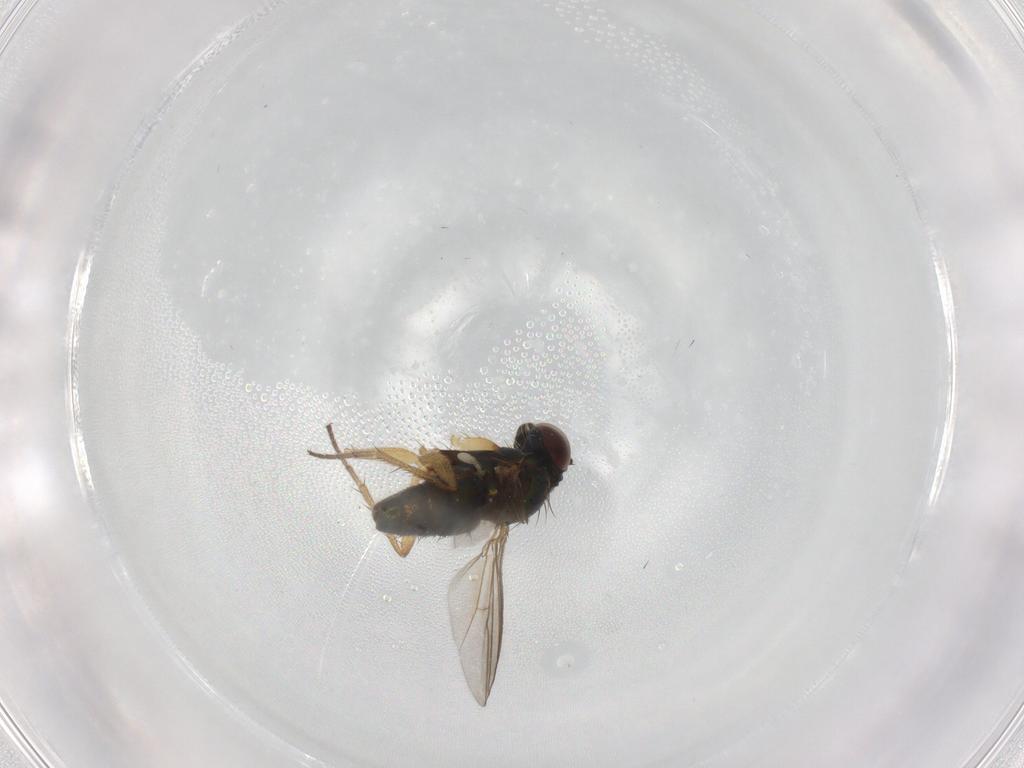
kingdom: Animalia
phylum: Arthropoda
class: Insecta
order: Diptera
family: Dolichopodidae
